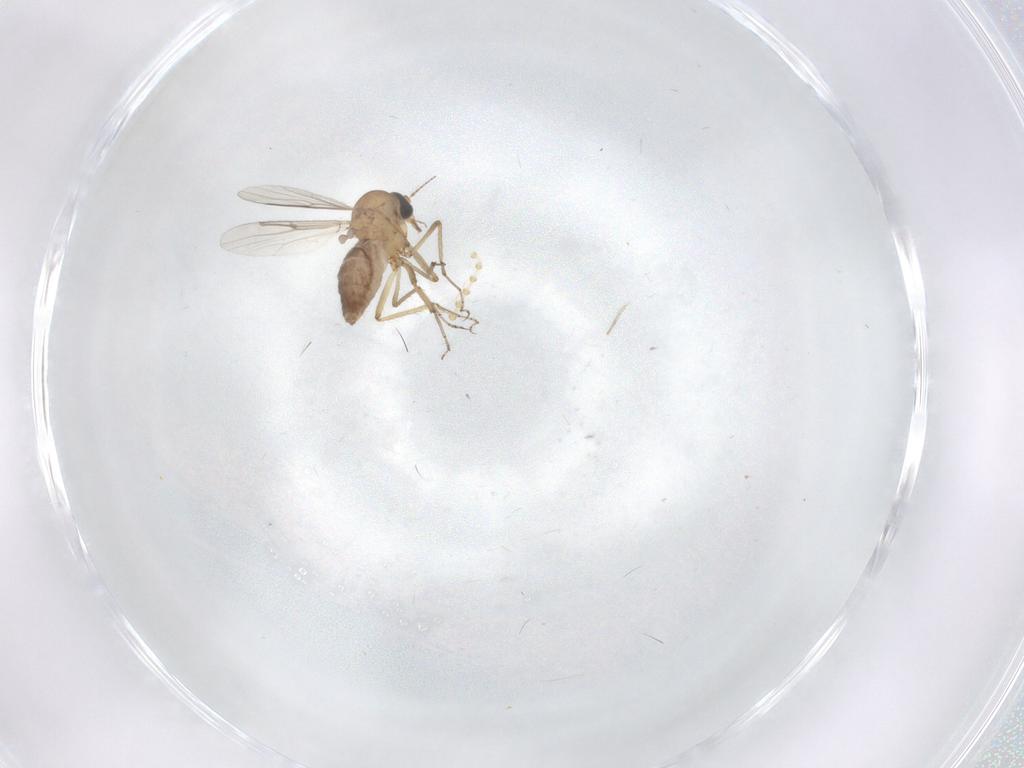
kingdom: Animalia
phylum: Arthropoda
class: Insecta
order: Diptera
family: Psychodidae
